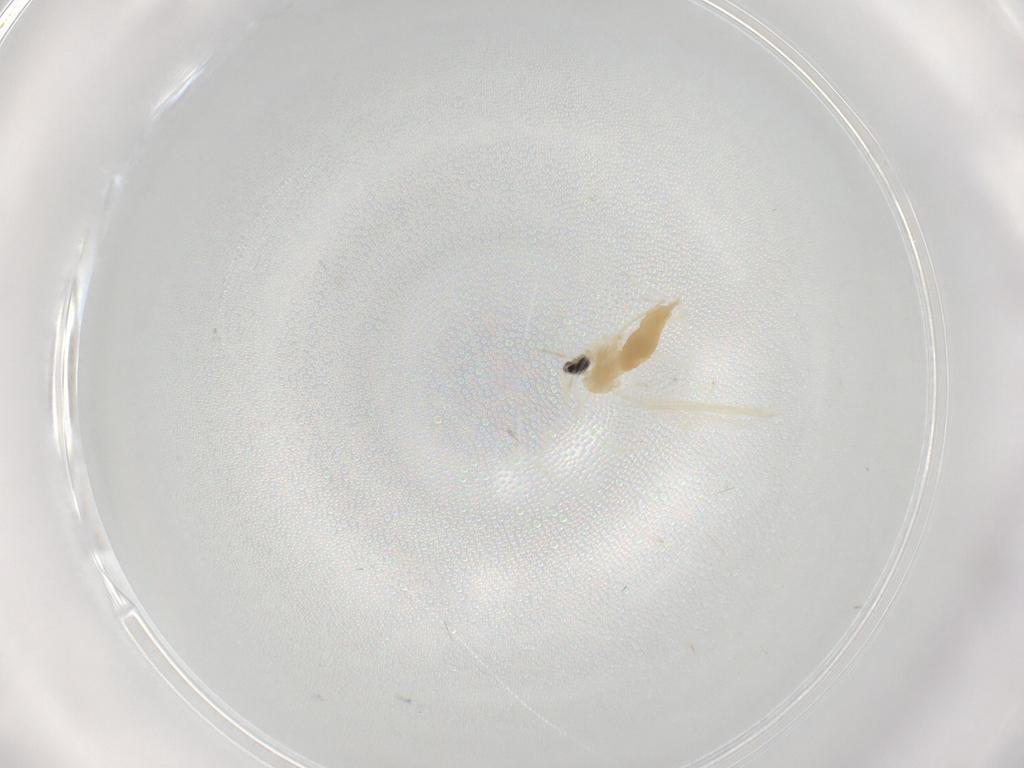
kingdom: Animalia
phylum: Arthropoda
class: Insecta
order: Diptera
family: Cecidomyiidae
